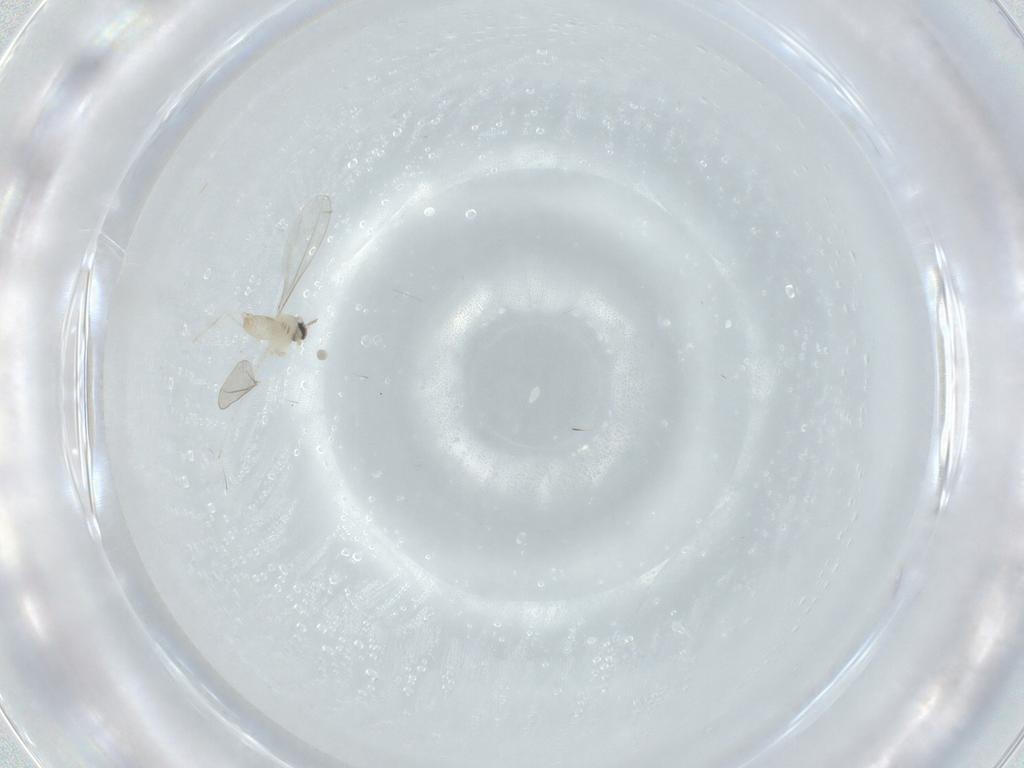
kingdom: Animalia
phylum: Arthropoda
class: Insecta
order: Diptera
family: Cecidomyiidae
